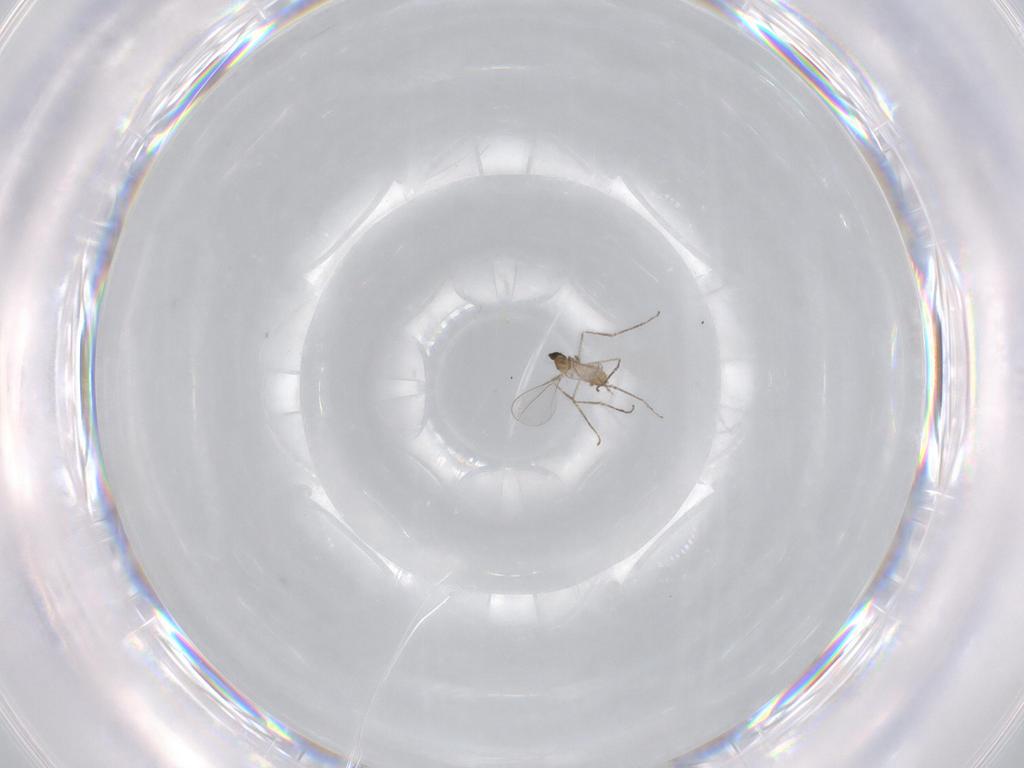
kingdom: Animalia
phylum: Arthropoda
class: Insecta
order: Diptera
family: Cecidomyiidae
